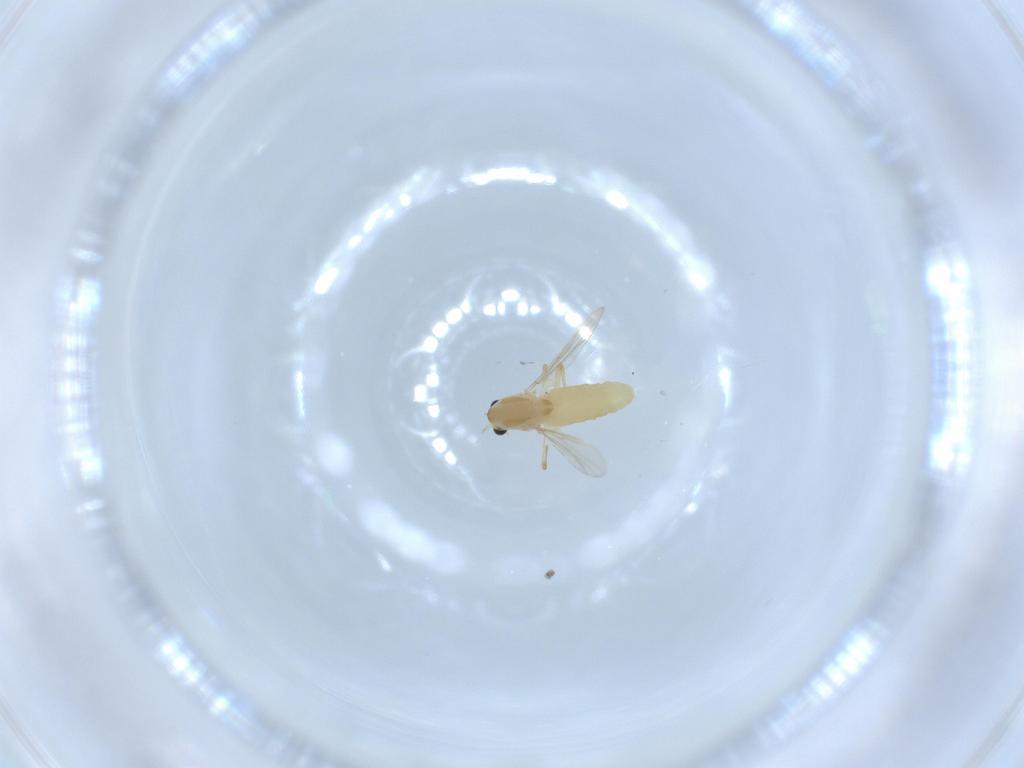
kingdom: Animalia
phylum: Arthropoda
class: Insecta
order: Diptera
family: Chironomidae
